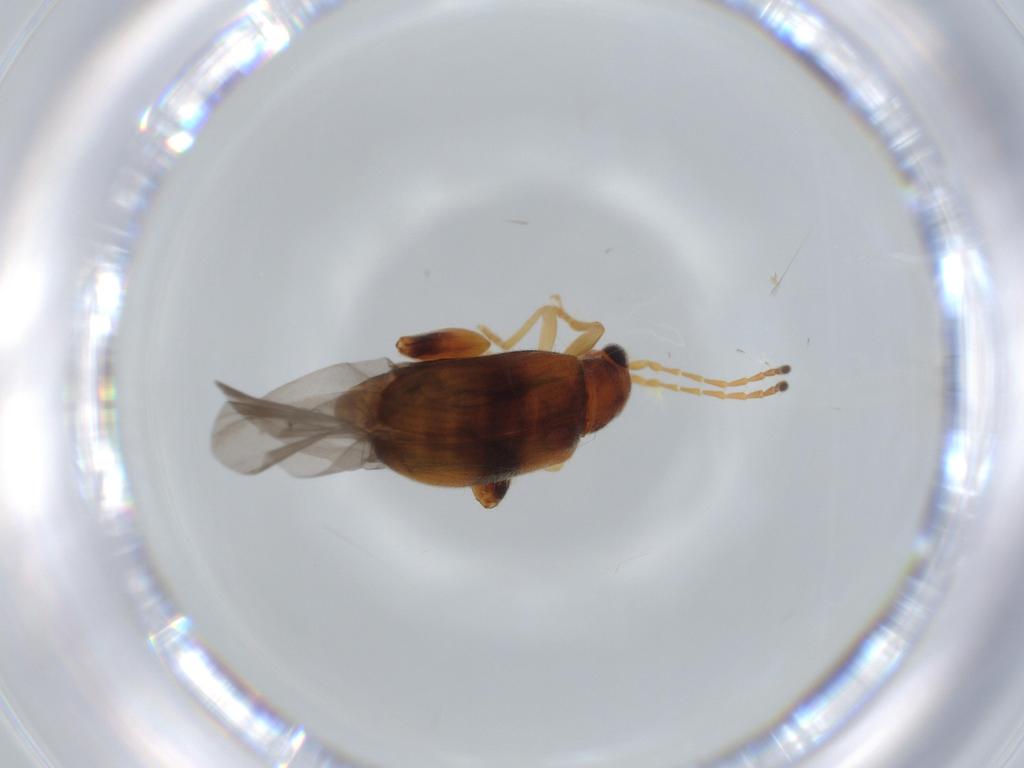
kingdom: Animalia
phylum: Arthropoda
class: Insecta
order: Coleoptera
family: Chrysomelidae
